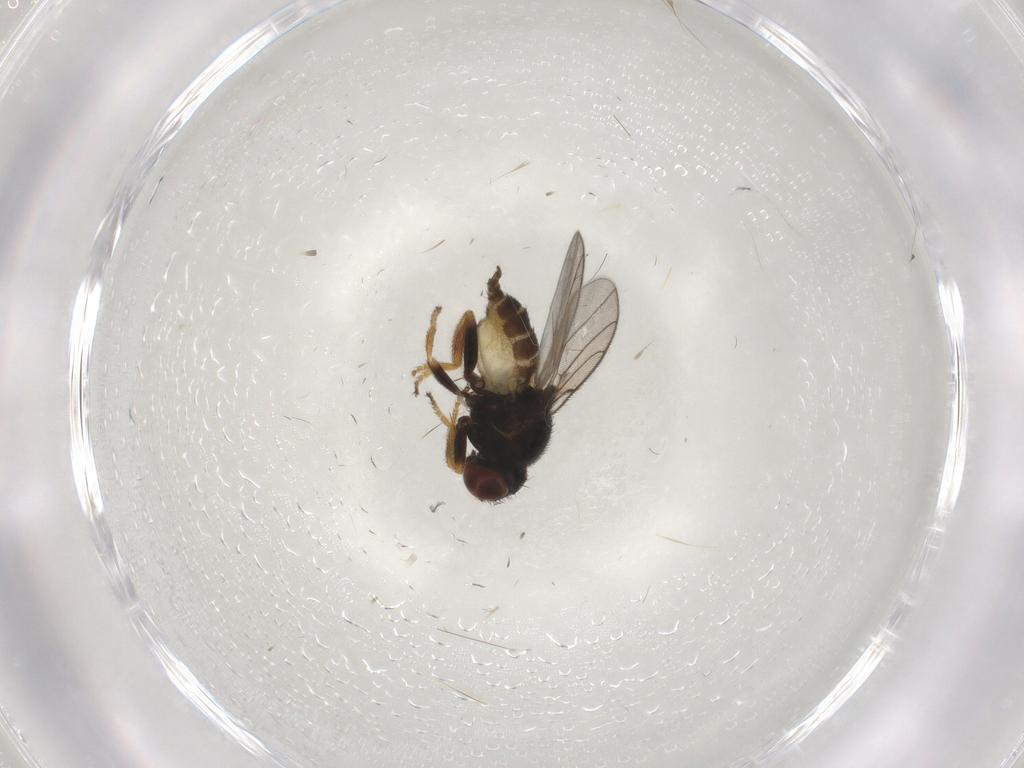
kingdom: Animalia
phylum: Arthropoda
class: Insecta
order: Diptera
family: Chloropidae
